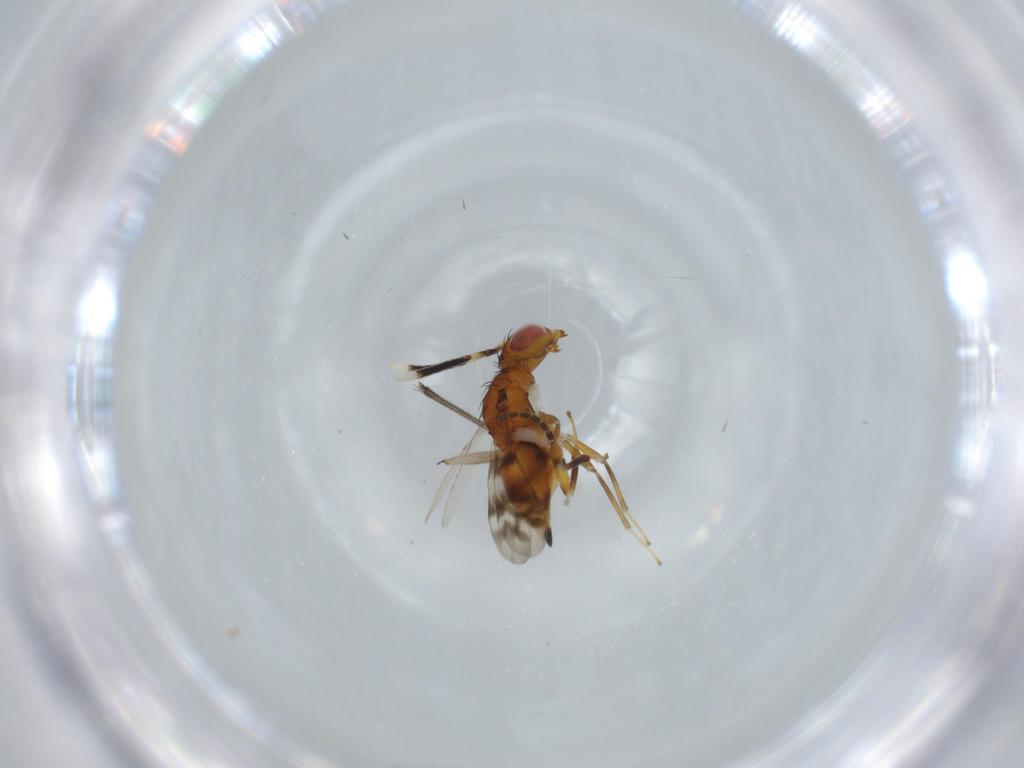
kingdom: Animalia
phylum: Arthropoda
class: Insecta
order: Hymenoptera
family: Diparidae
